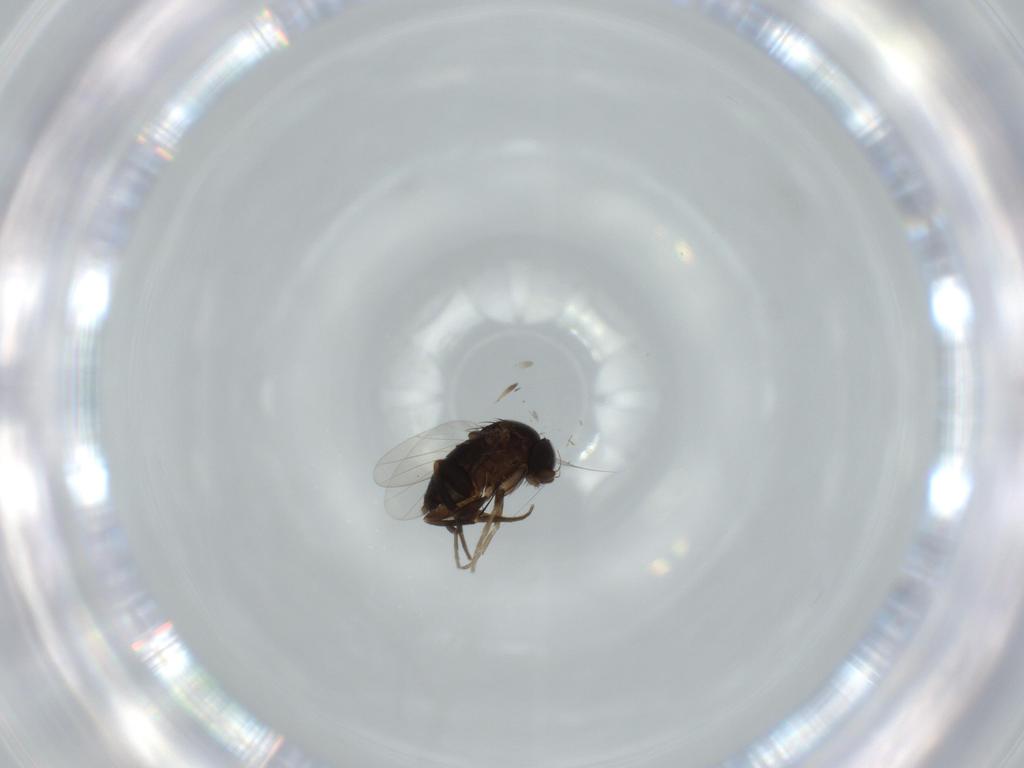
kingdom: Animalia
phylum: Arthropoda
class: Insecta
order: Diptera
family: Phoridae
